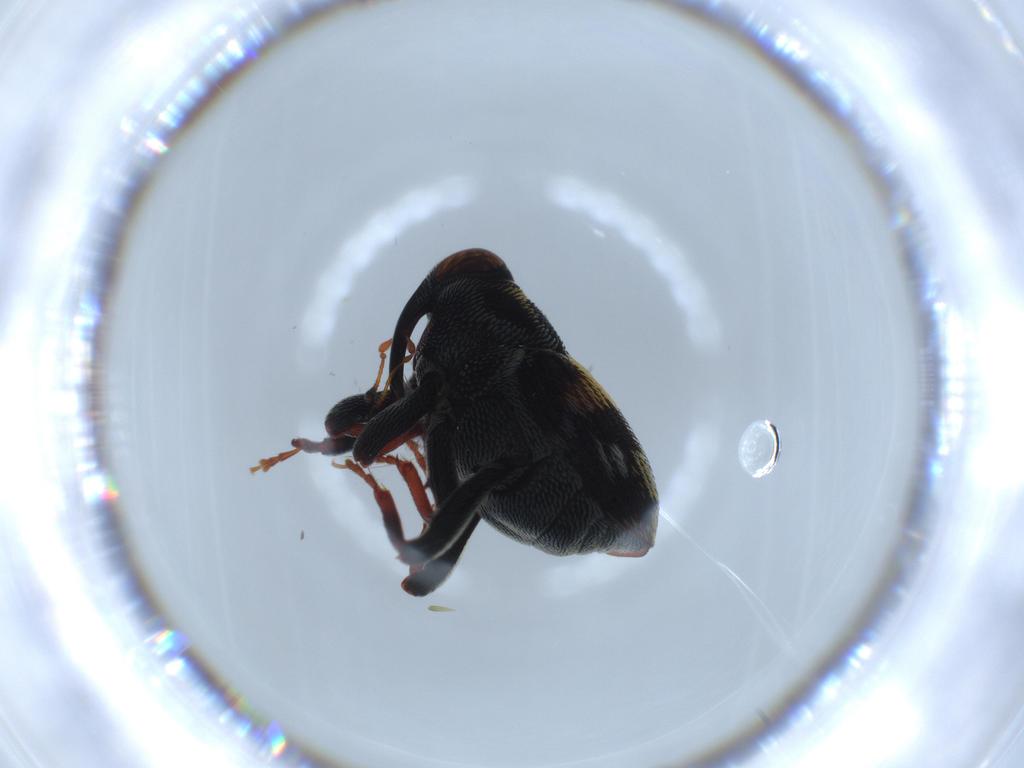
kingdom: Animalia
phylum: Arthropoda
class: Insecta
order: Coleoptera
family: Curculionidae
